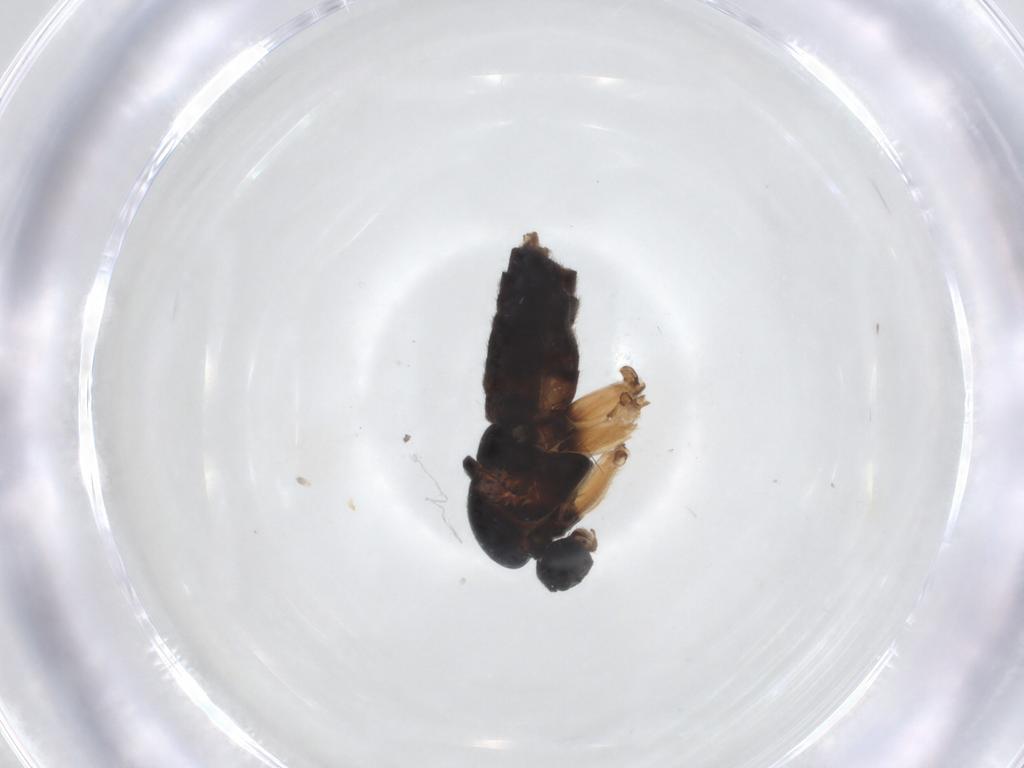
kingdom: Animalia
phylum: Arthropoda
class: Insecta
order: Diptera
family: Sciaridae
